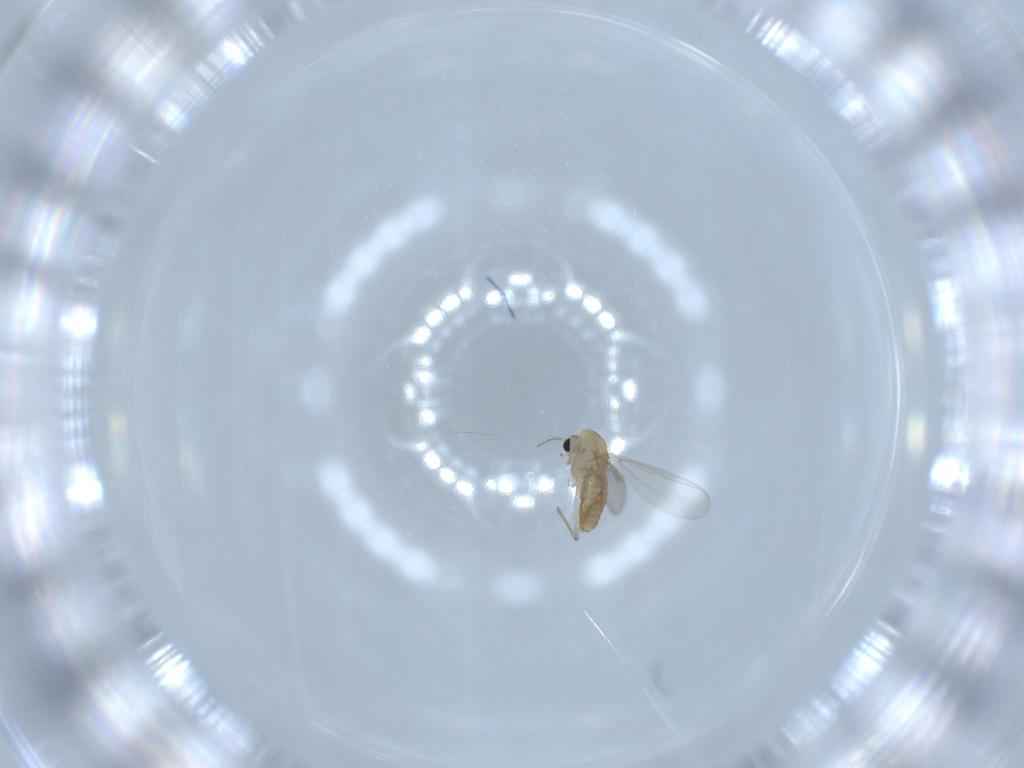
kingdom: Animalia
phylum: Arthropoda
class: Insecta
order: Diptera
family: Chironomidae
